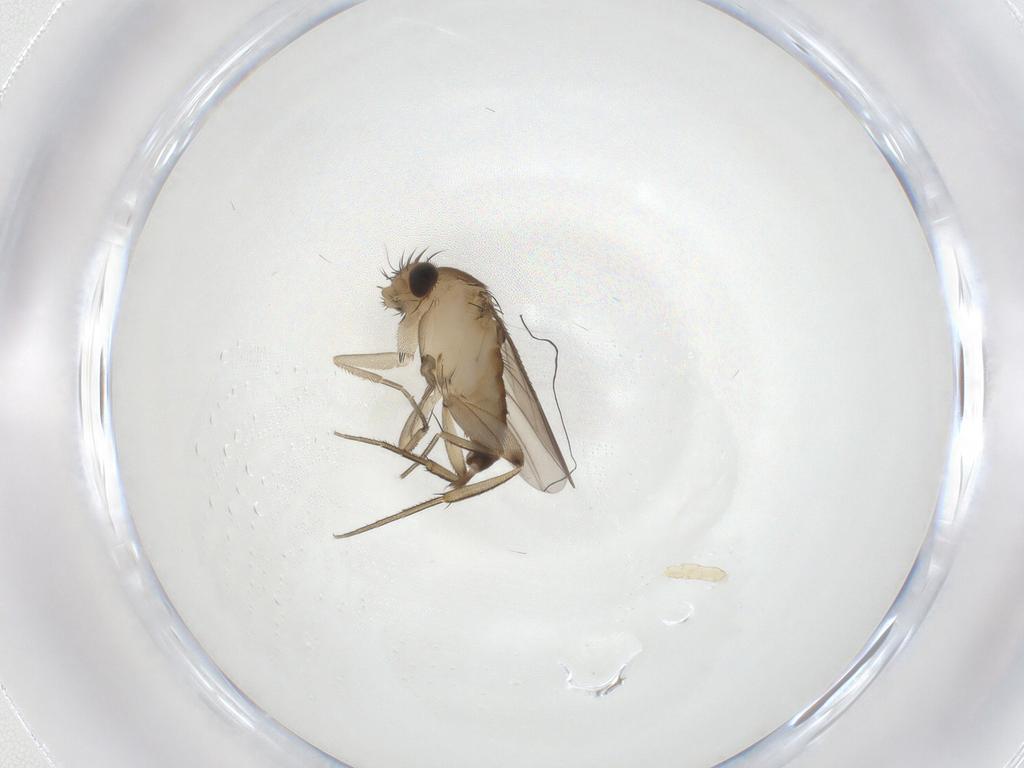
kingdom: Animalia
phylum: Arthropoda
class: Insecta
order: Diptera
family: Phoridae
